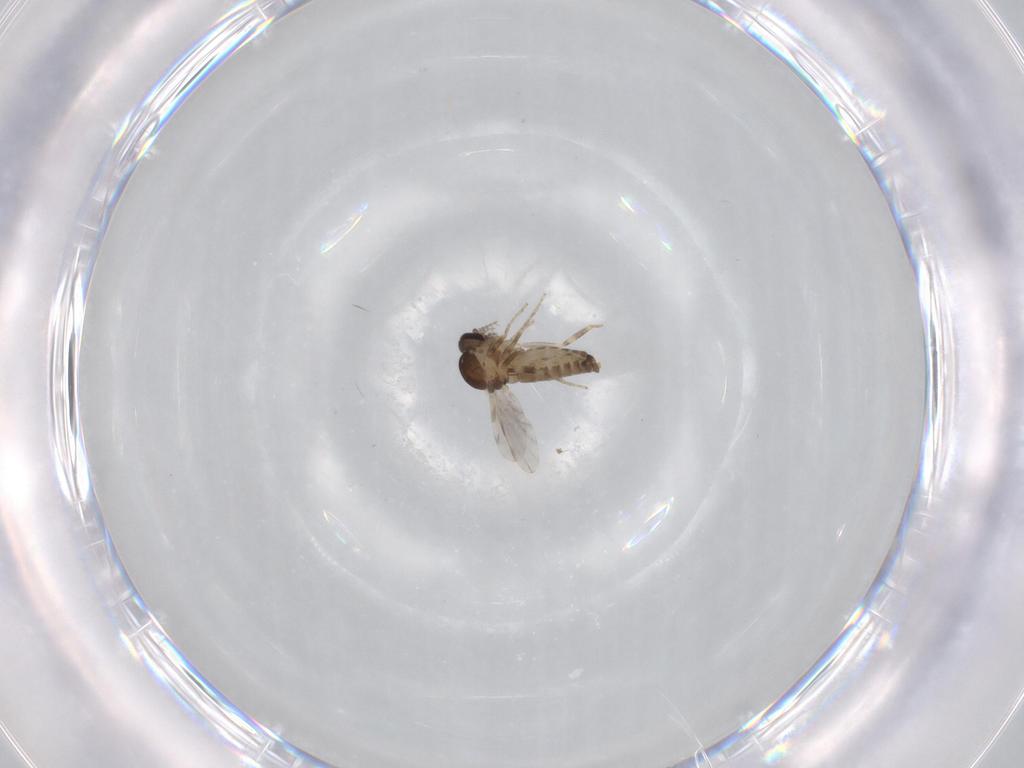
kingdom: Animalia
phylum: Arthropoda
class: Insecta
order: Diptera
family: Ceratopogonidae
